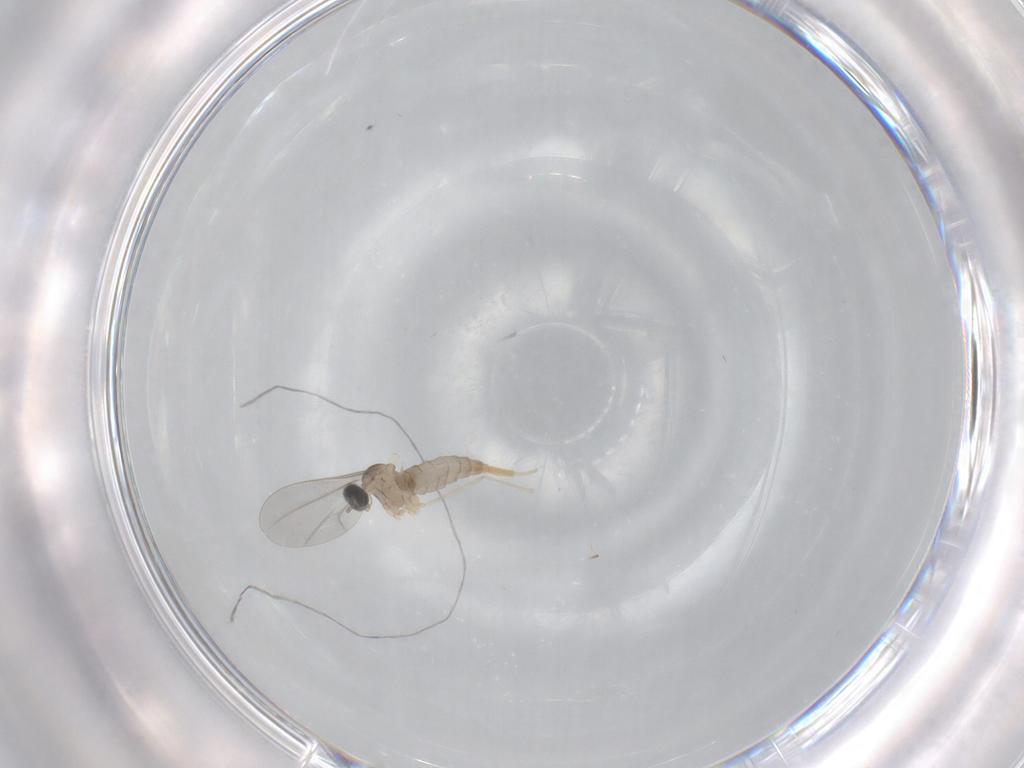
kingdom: Animalia
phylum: Arthropoda
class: Insecta
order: Diptera
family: Cecidomyiidae
